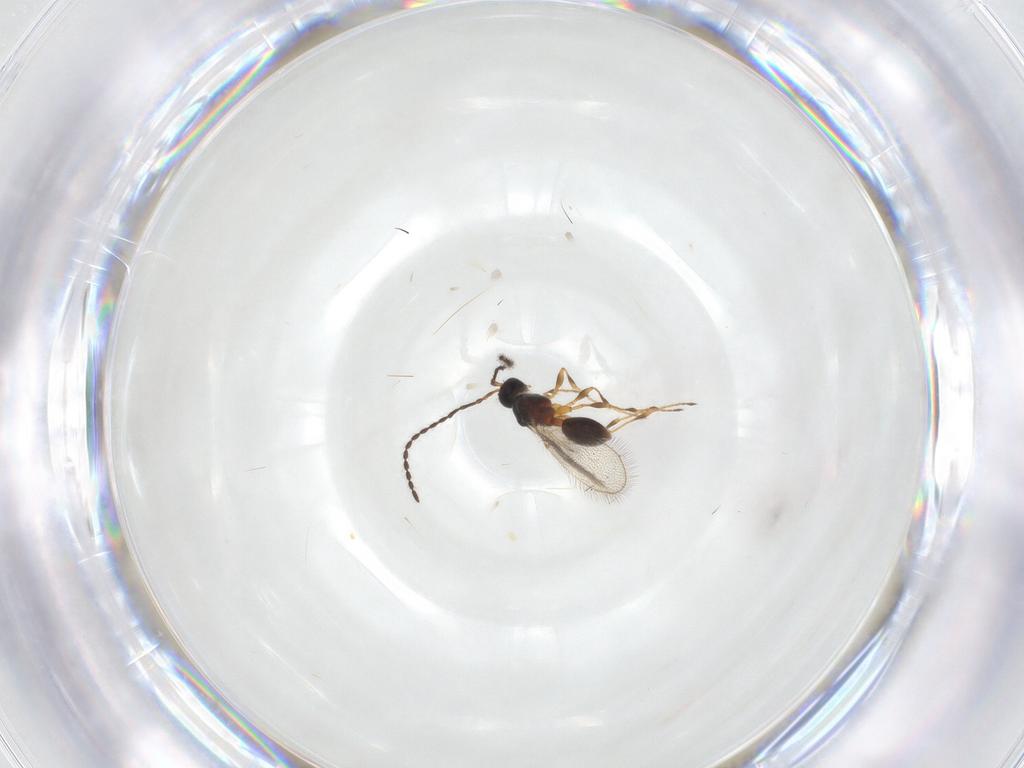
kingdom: Animalia
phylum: Arthropoda
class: Insecta
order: Hymenoptera
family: Diapriidae
